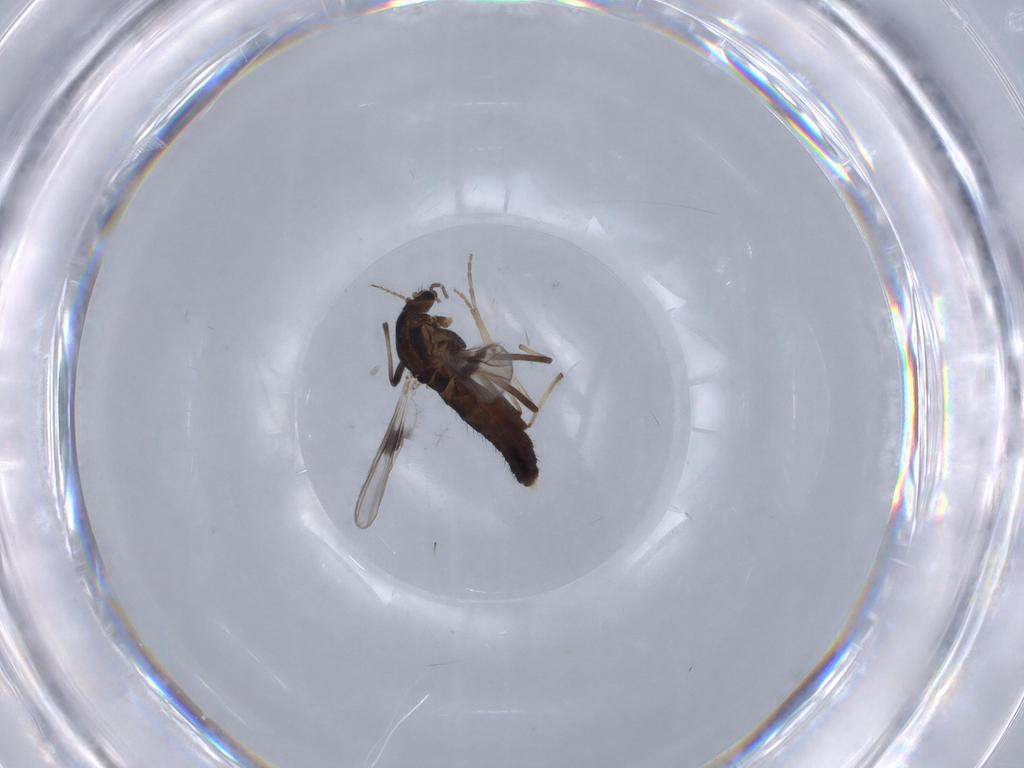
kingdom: Animalia
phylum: Arthropoda
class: Insecta
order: Diptera
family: Chironomidae
